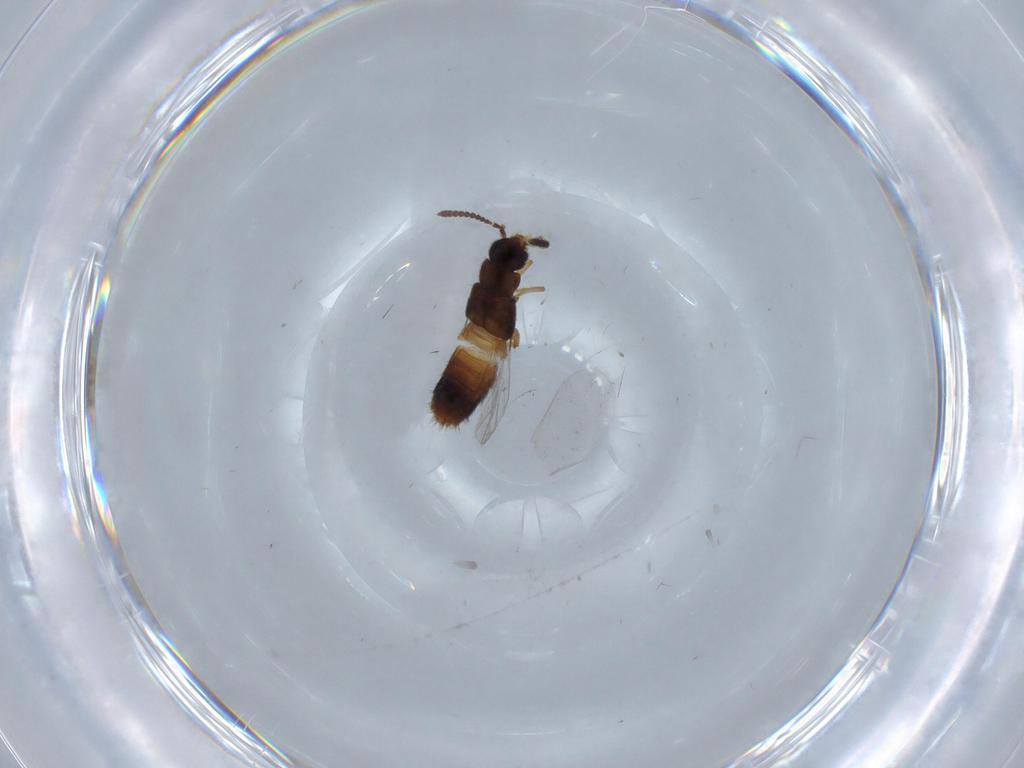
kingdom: Animalia
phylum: Arthropoda
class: Insecta
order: Coleoptera
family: Staphylinidae
